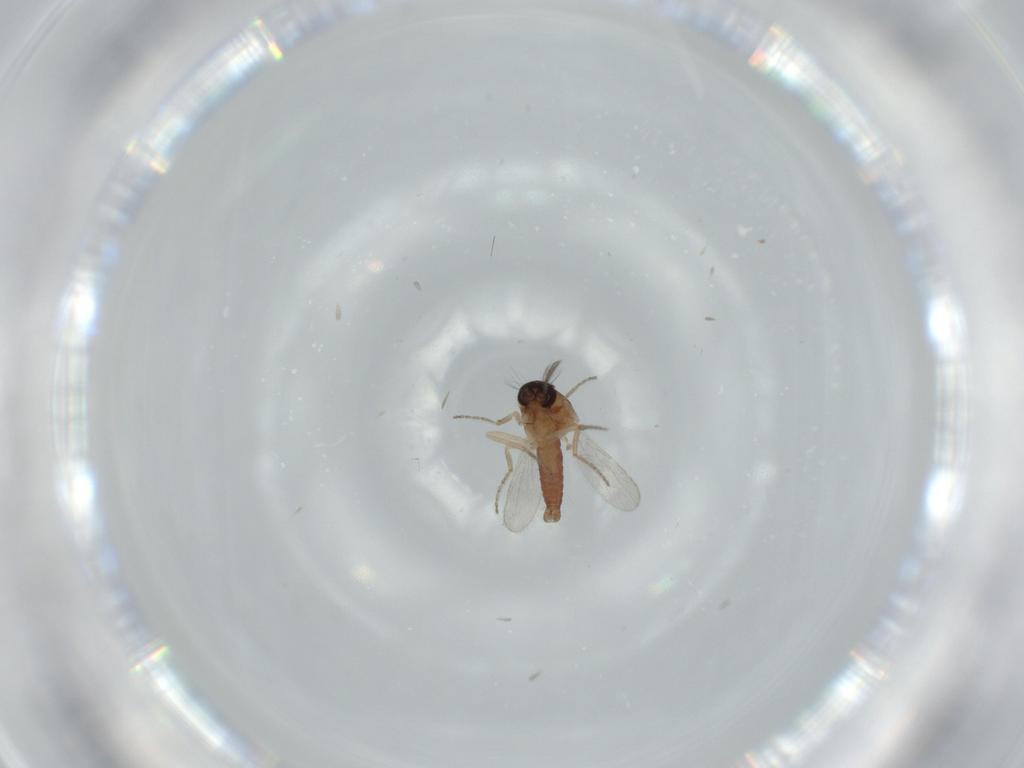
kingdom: Animalia
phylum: Arthropoda
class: Insecta
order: Diptera
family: Ceratopogonidae
